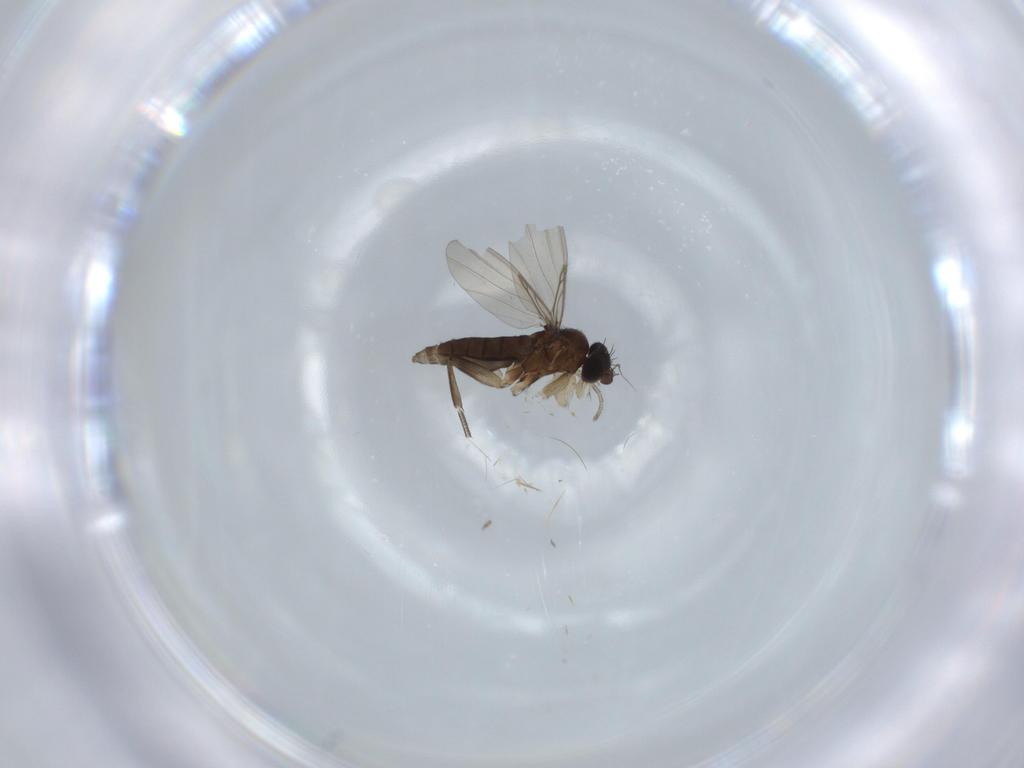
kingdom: Animalia
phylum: Arthropoda
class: Insecta
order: Diptera
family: Phoridae
